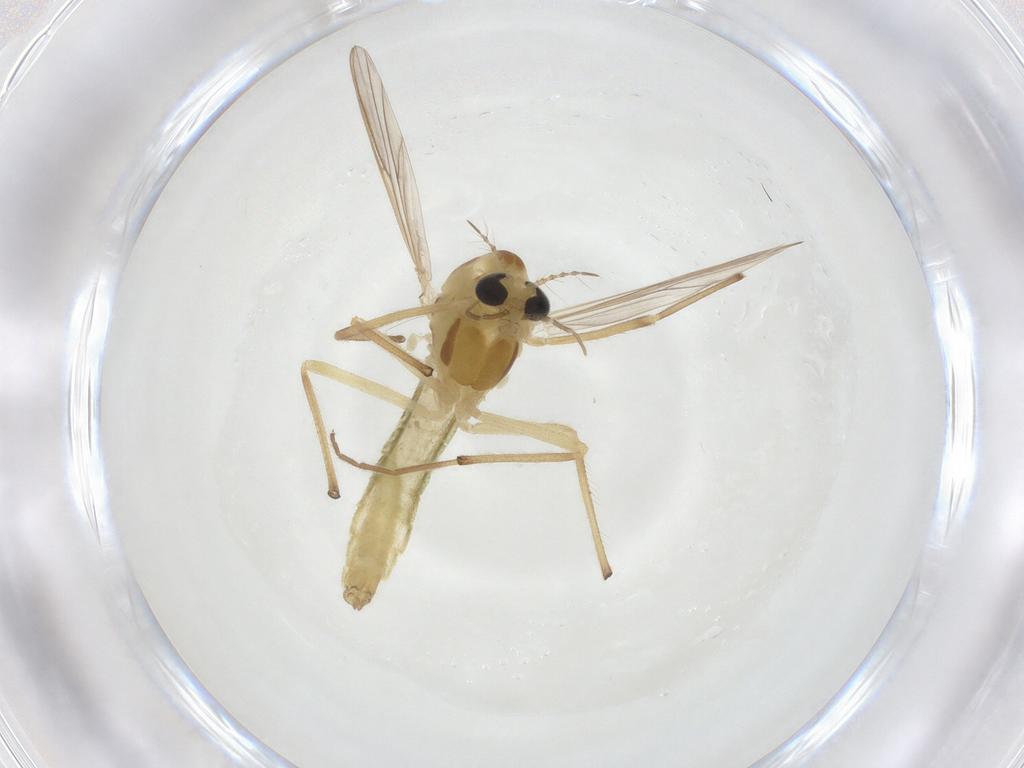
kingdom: Animalia
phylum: Arthropoda
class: Insecta
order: Diptera
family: Chironomidae
